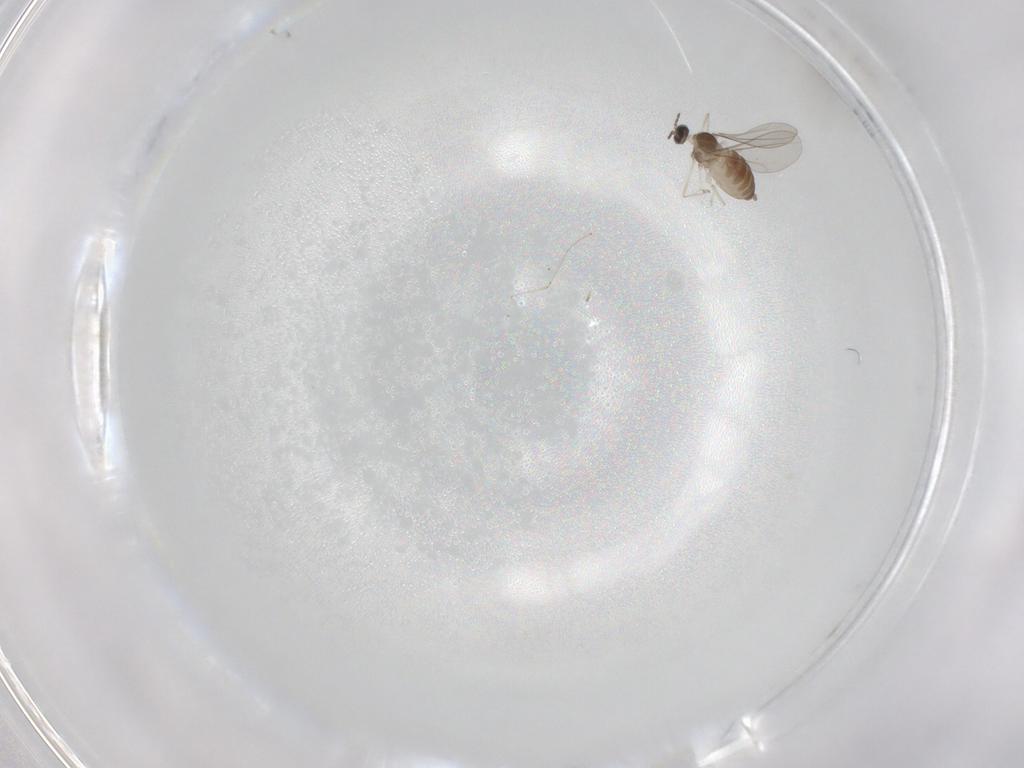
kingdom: Animalia
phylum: Arthropoda
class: Insecta
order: Diptera
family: Cecidomyiidae
